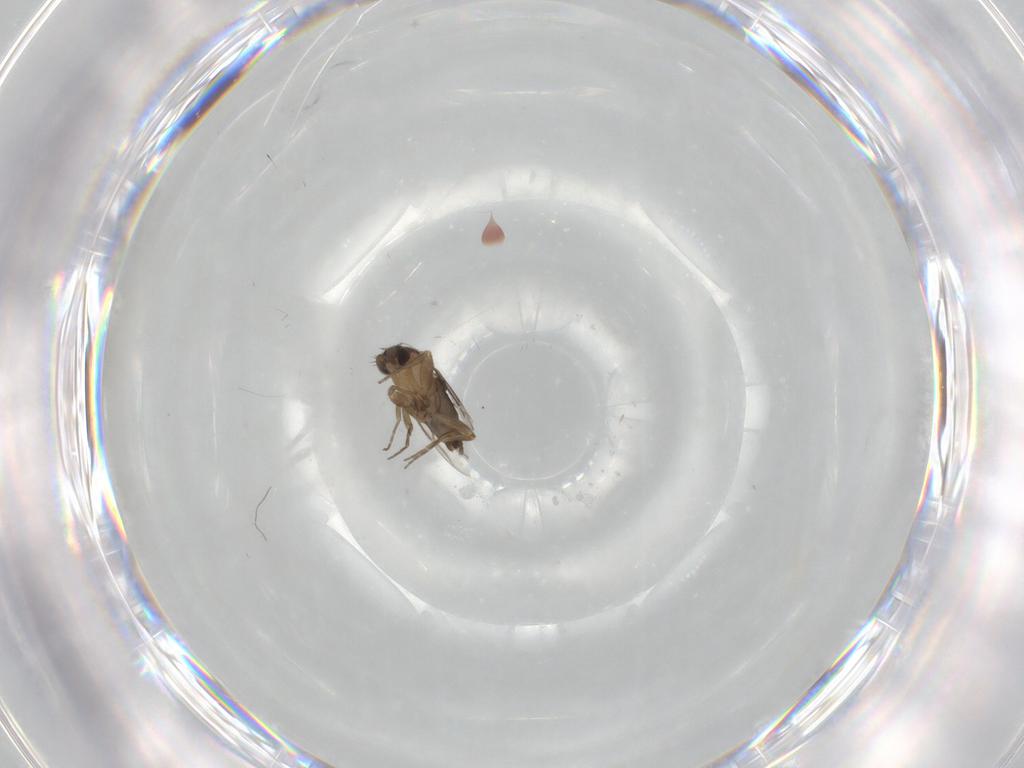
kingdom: Animalia
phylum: Arthropoda
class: Insecta
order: Diptera
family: Phoridae
